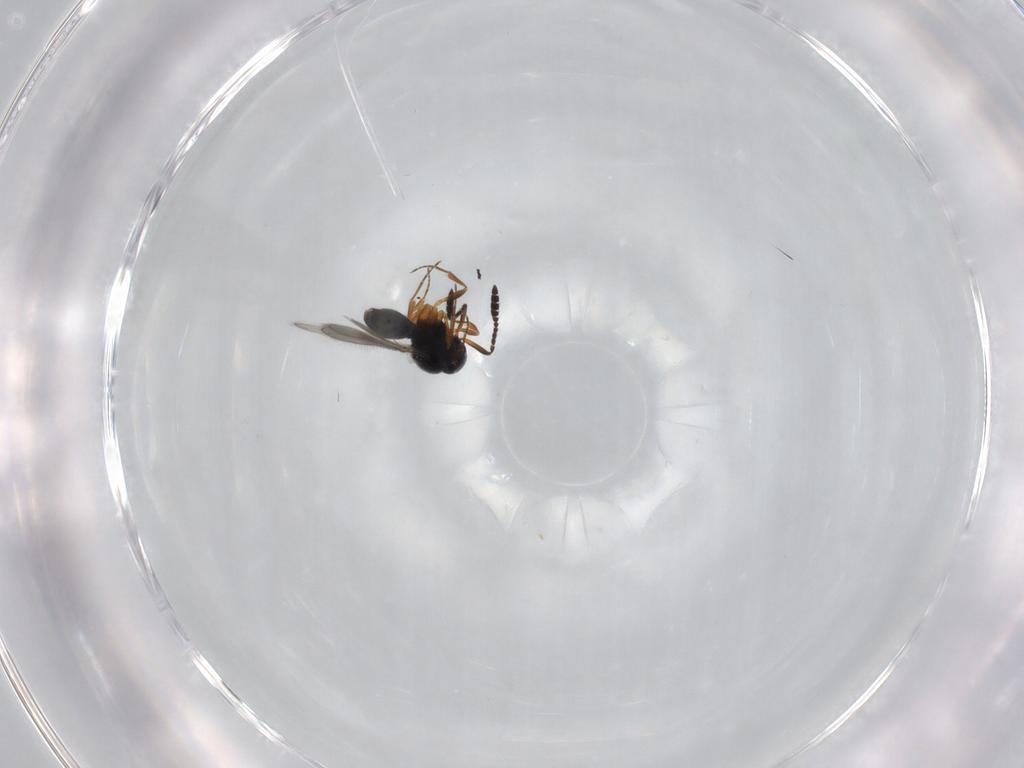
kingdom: Animalia
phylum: Arthropoda
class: Insecta
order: Hymenoptera
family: Scelionidae
